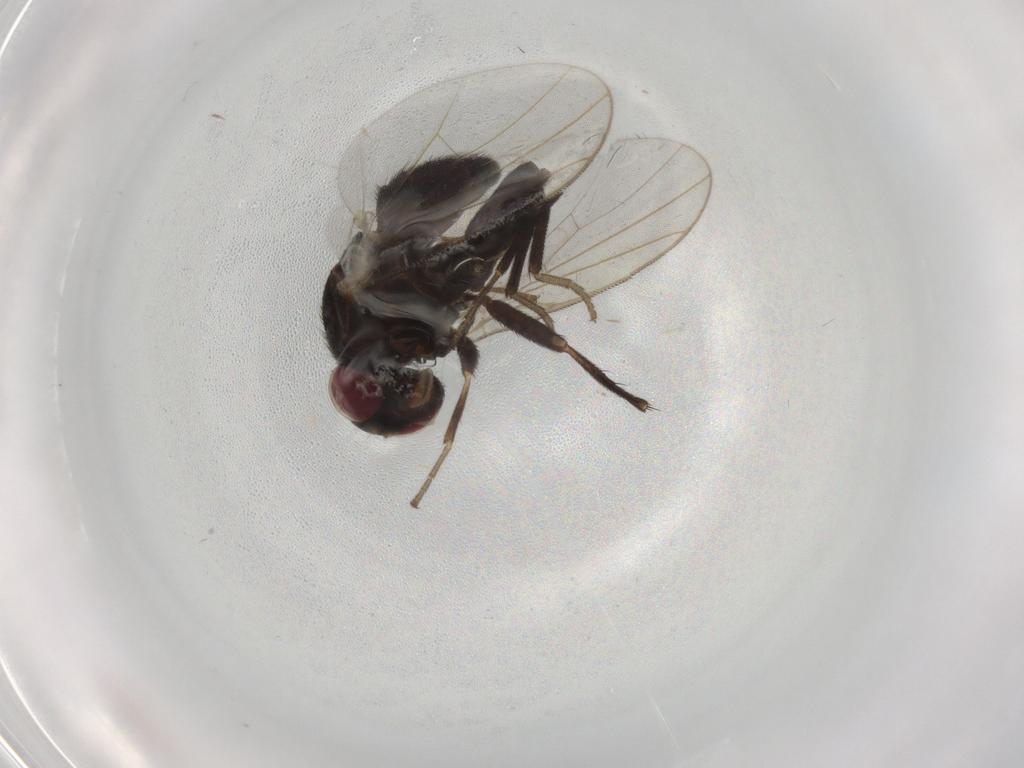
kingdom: Animalia
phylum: Arthropoda
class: Insecta
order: Diptera
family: Psychodidae
